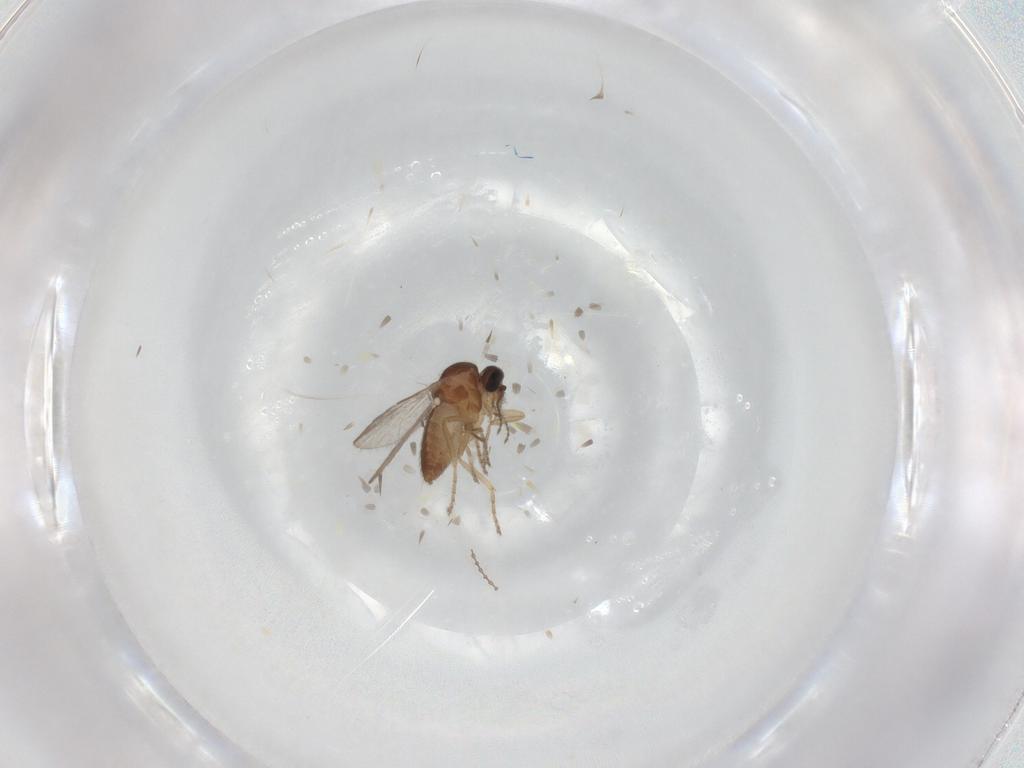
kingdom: Animalia
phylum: Arthropoda
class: Insecta
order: Diptera
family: Ceratopogonidae
